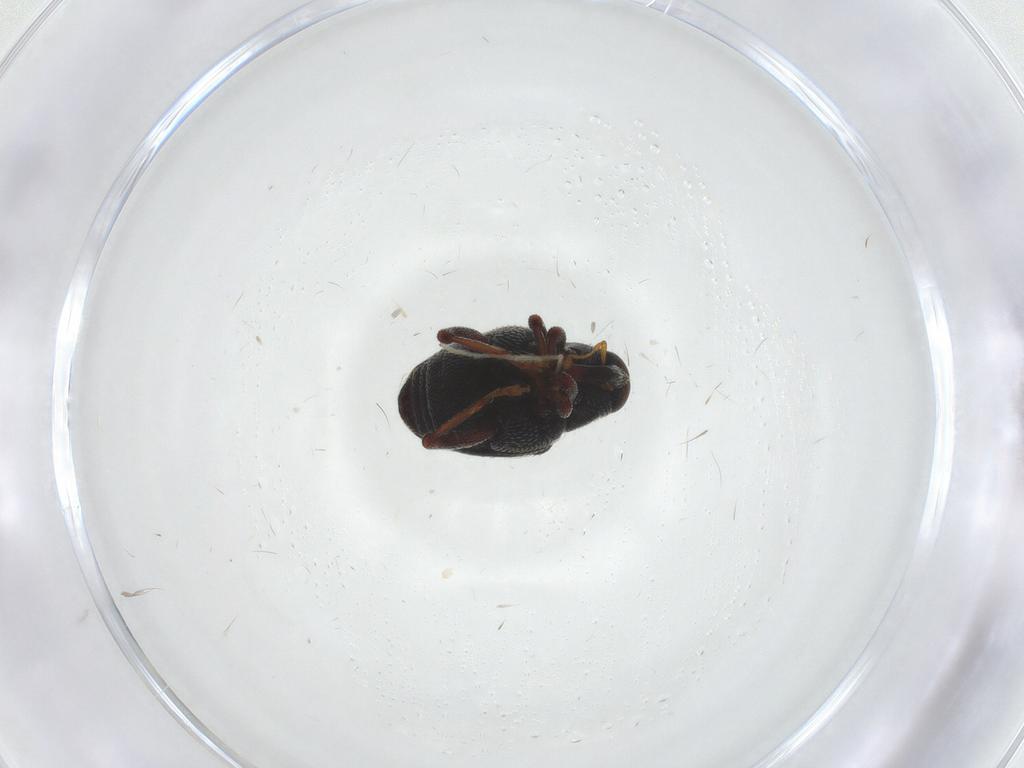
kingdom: Animalia
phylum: Arthropoda
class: Insecta
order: Coleoptera
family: Curculionidae
